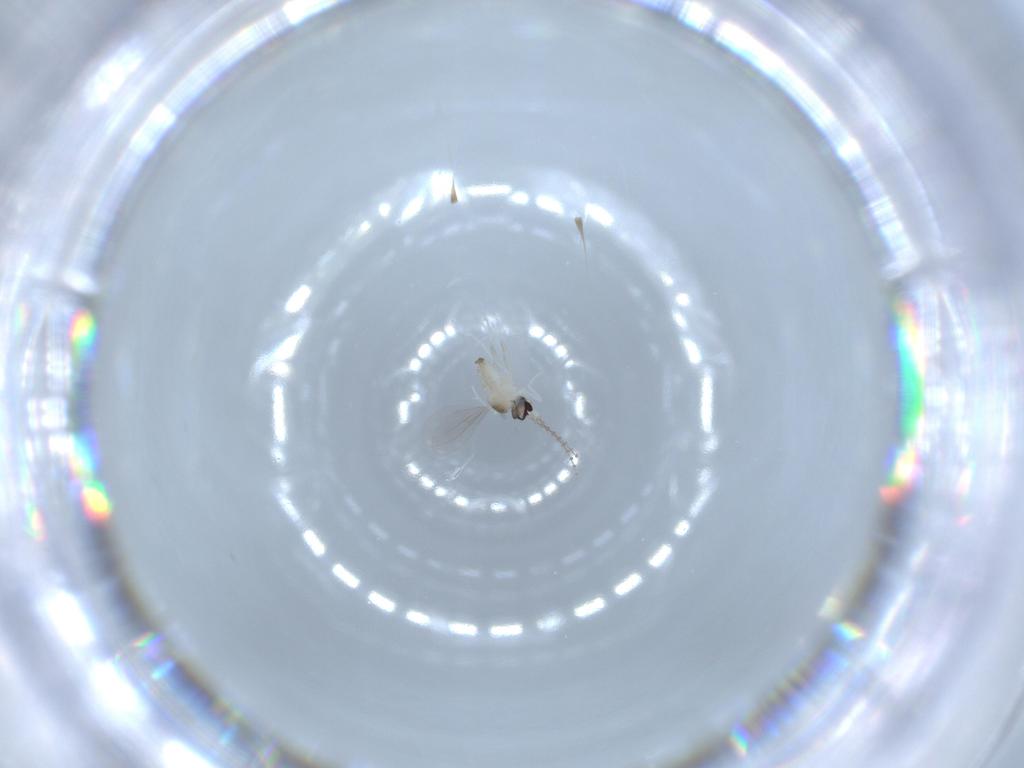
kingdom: Animalia
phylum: Arthropoda
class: Insecta
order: Diptera
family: Cecidomyiidae
